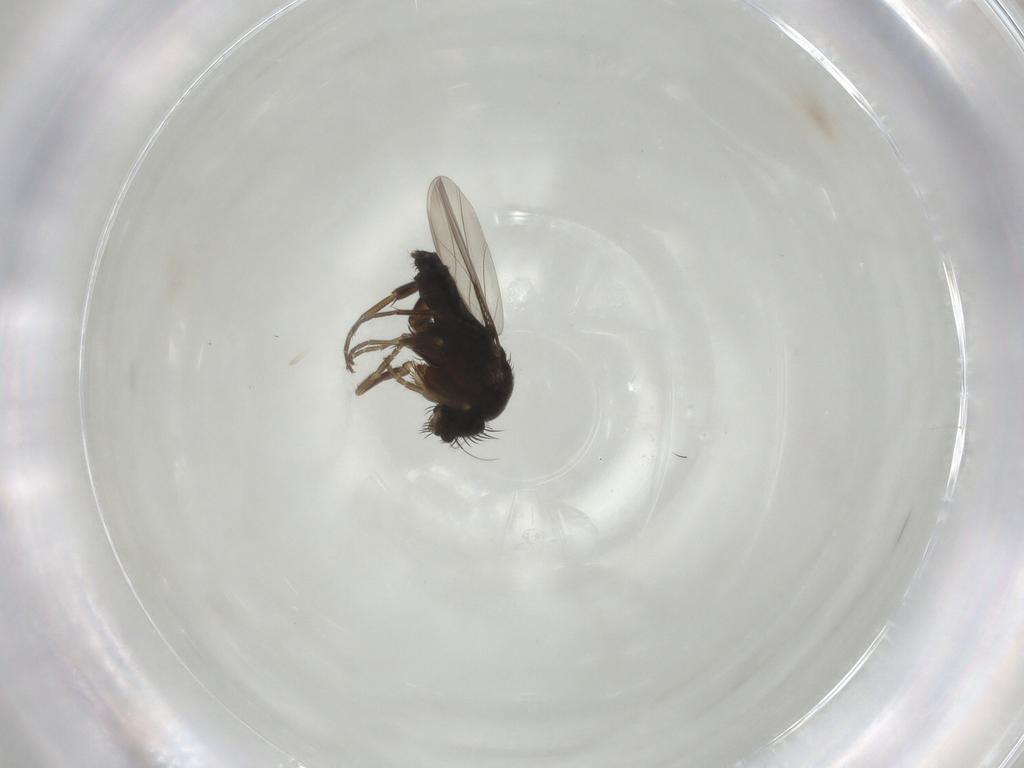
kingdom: Animalia
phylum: Arthropoda
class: Insecta
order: Diptera
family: Phoridae
